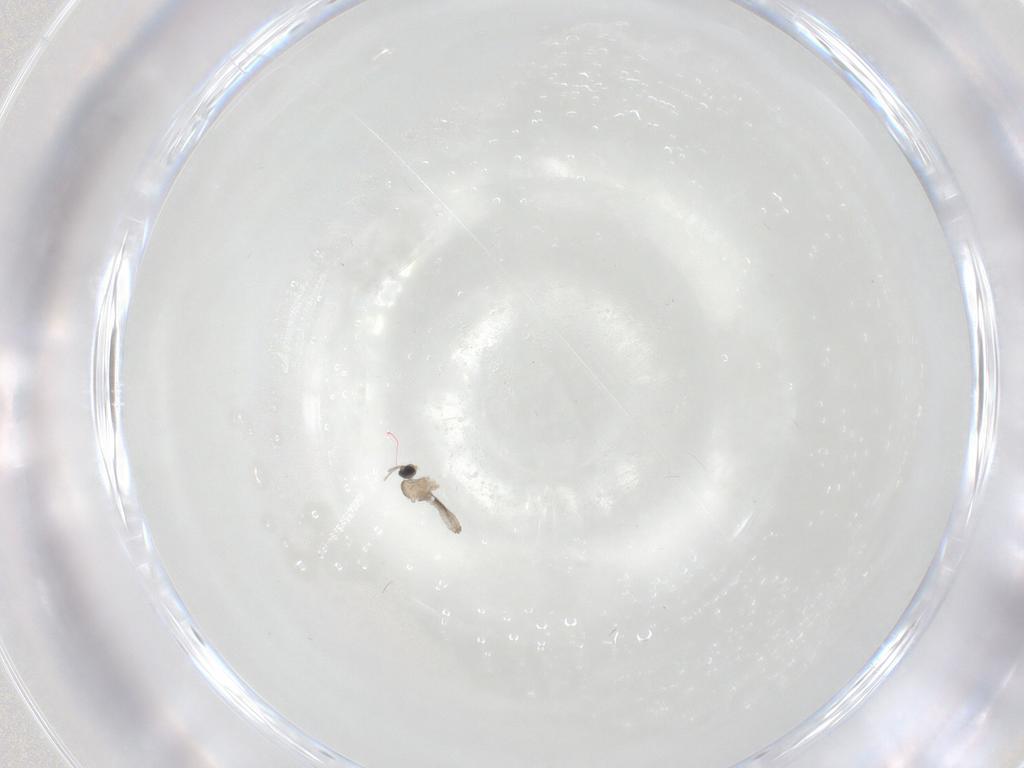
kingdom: Animalia
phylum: Arthropoda
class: Insecta
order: Diptera
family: Cecidomyiidae
